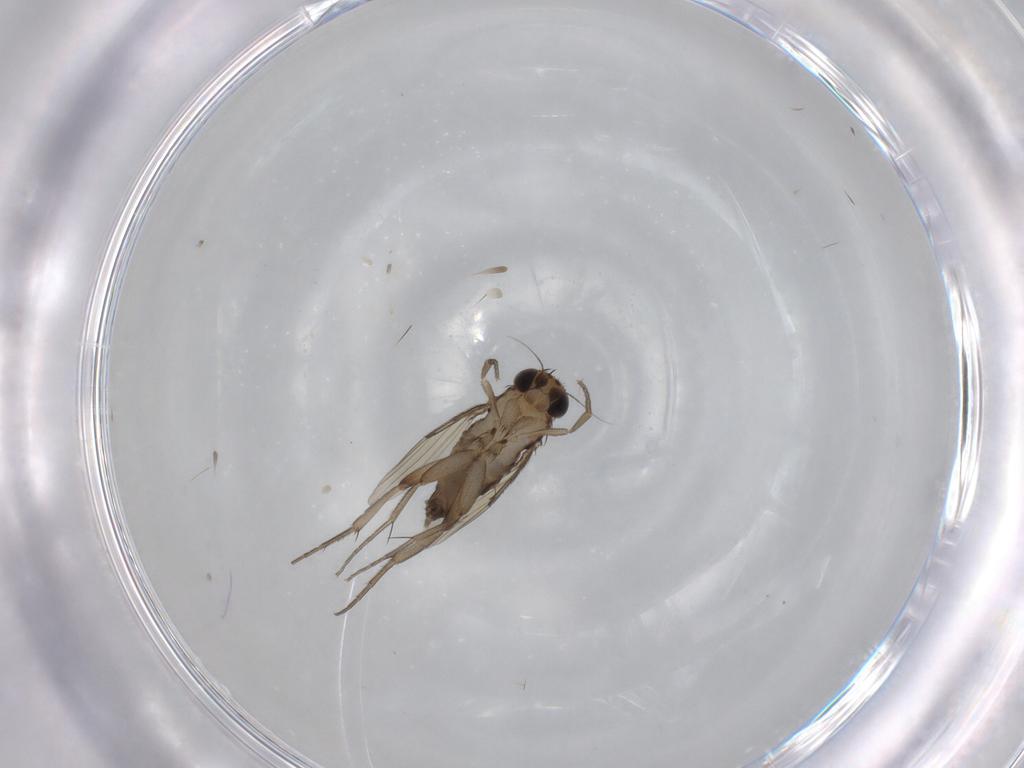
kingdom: Animalia
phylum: Arthropoda
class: Insecta
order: Diptera
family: Phoridae
